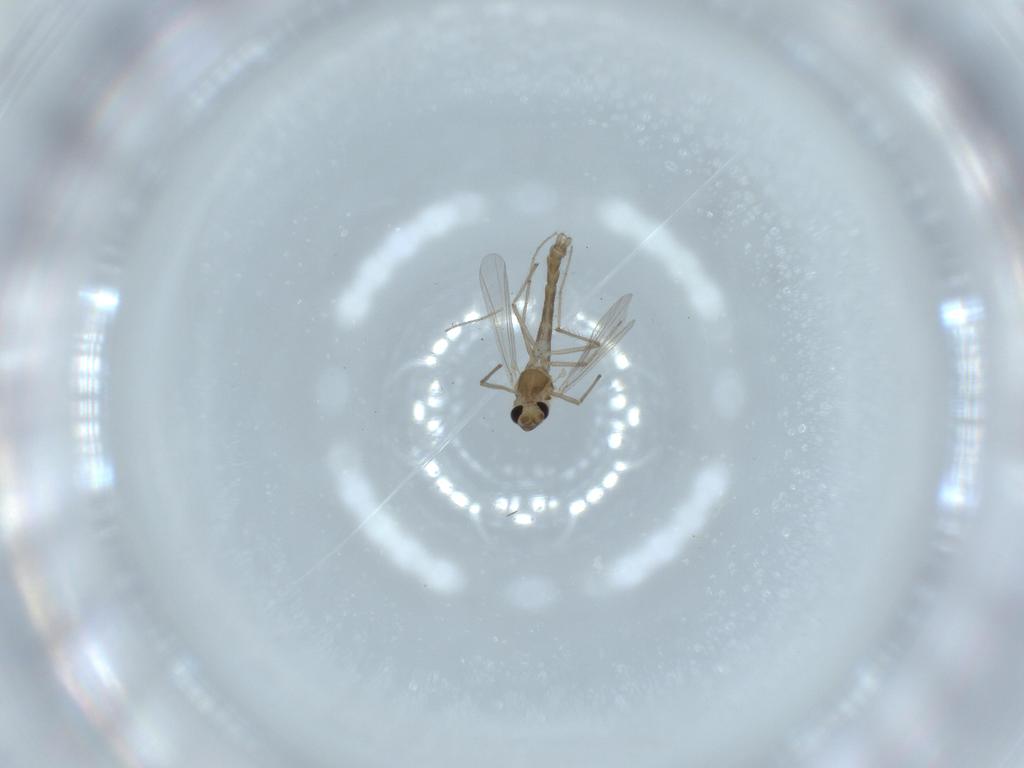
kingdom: Animalia
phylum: Arthropoda
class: Insecta
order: Diptera
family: Chironomidae
